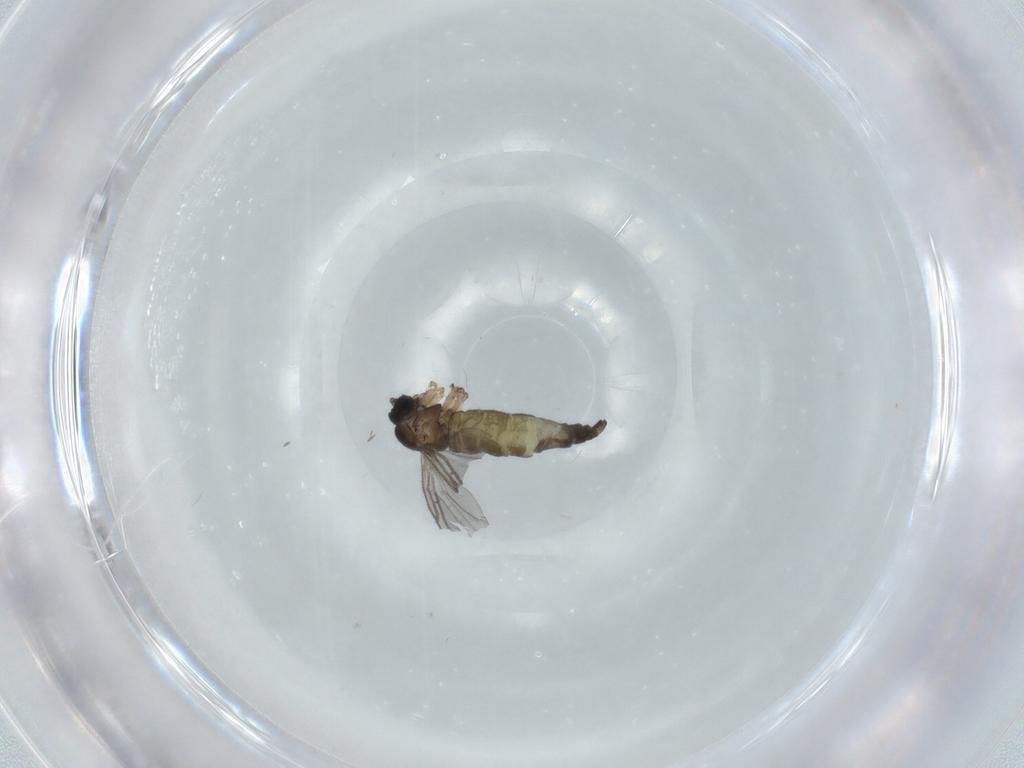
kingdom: Animalia
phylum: Arthropoda
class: Insecta
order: Diptera
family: Sciaridae
